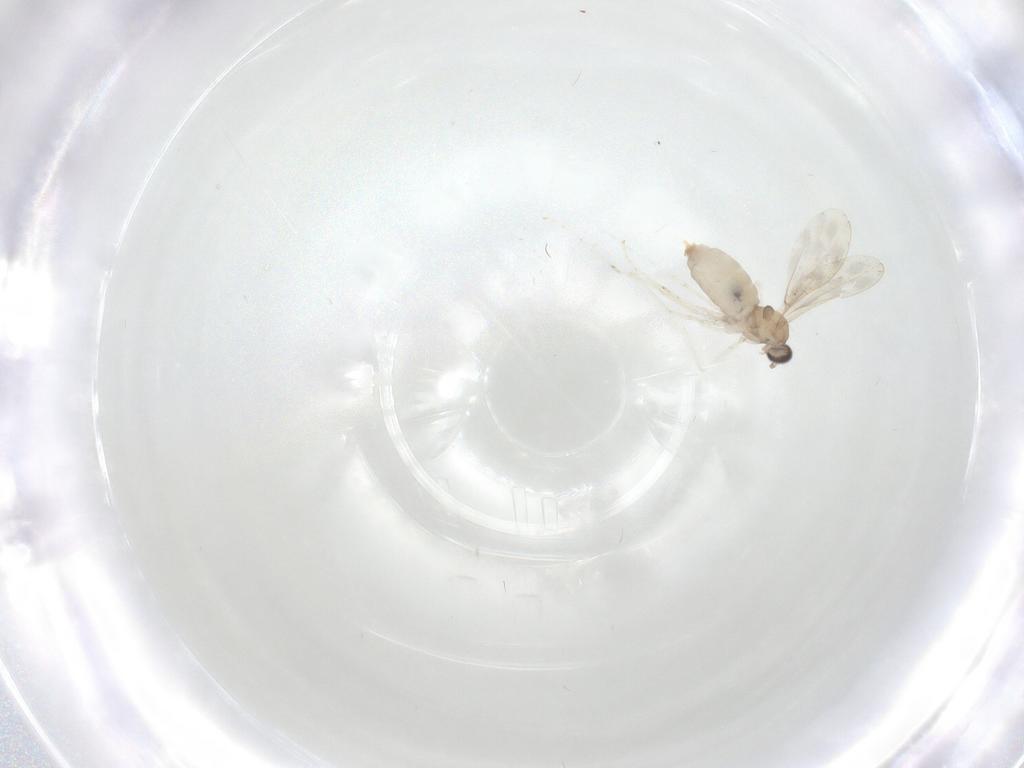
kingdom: Animalia
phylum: Arthropoda
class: Insecta
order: Diptera
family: Cecidomyiidae
